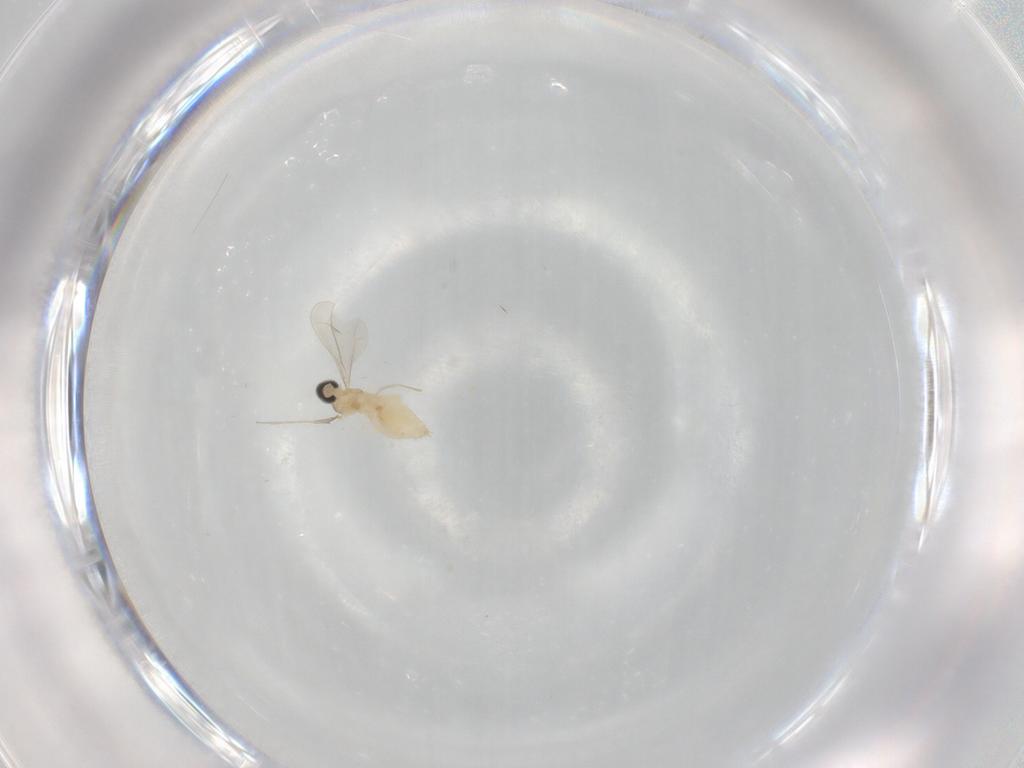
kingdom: Animalia
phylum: Arthropoda
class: Insecta
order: Diptera
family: Cecidomyiidae
